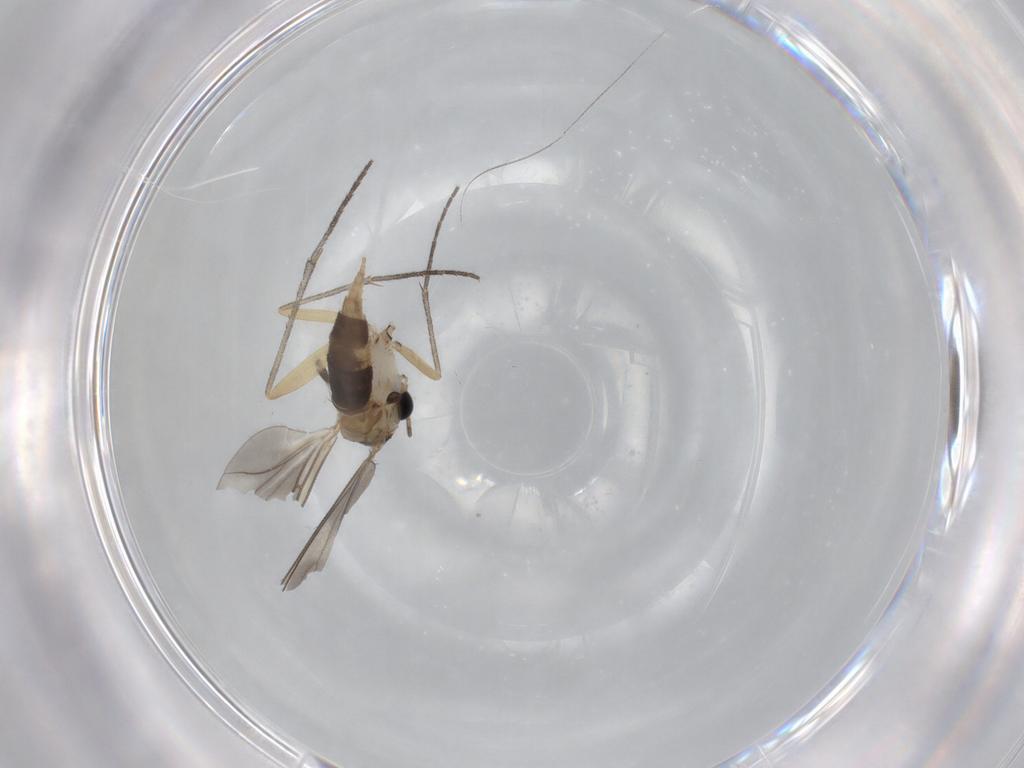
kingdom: Animalia
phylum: Arthropoda
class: Insecta
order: Diptera
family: Sciaridae
